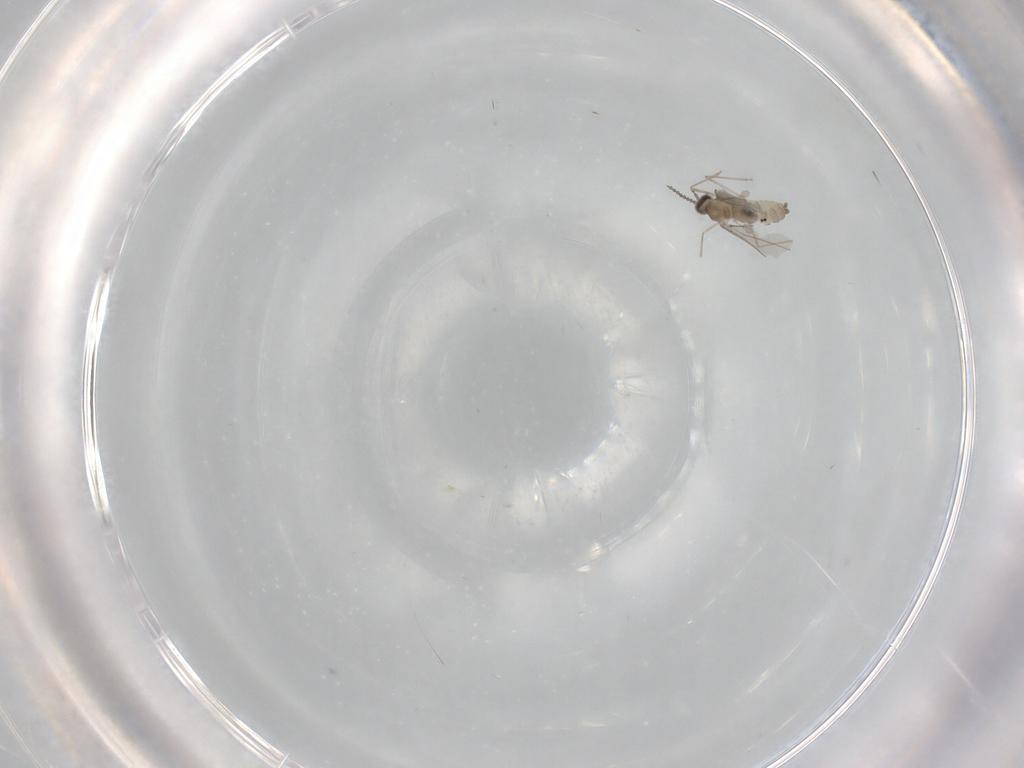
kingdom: Animalia
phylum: Arthropoda
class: Insecta
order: Diptera
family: Cecidomyiidae
